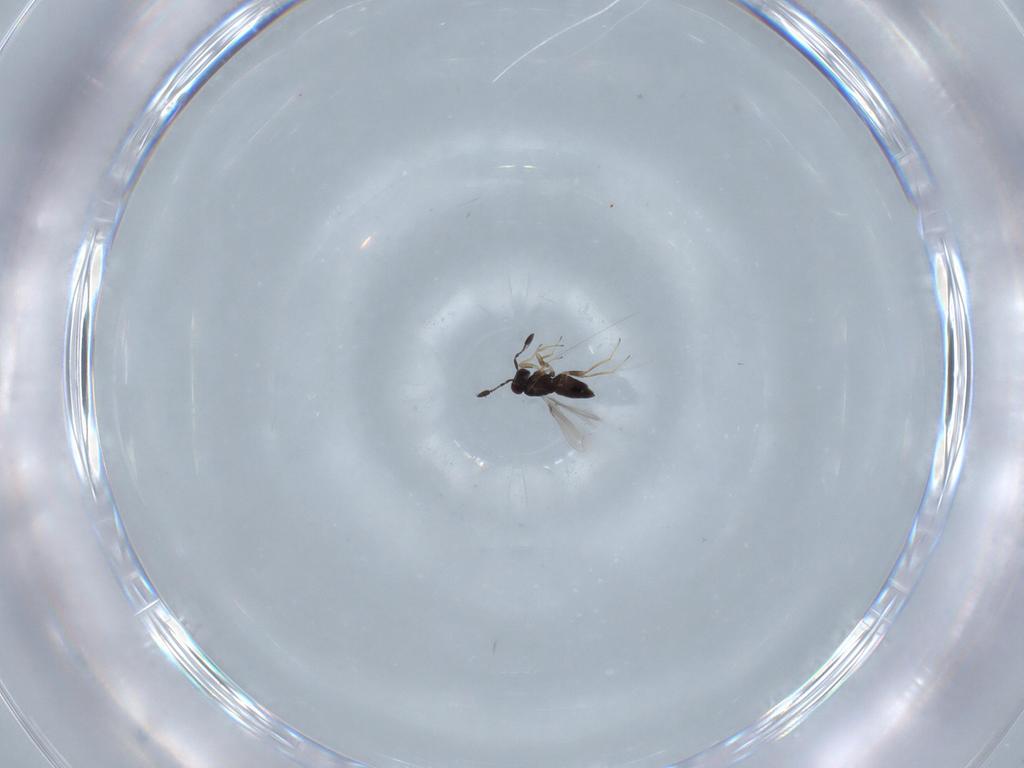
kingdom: Animalia
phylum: Arthropoda
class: Insecta
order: Hymenoptera
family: Mymaridae
